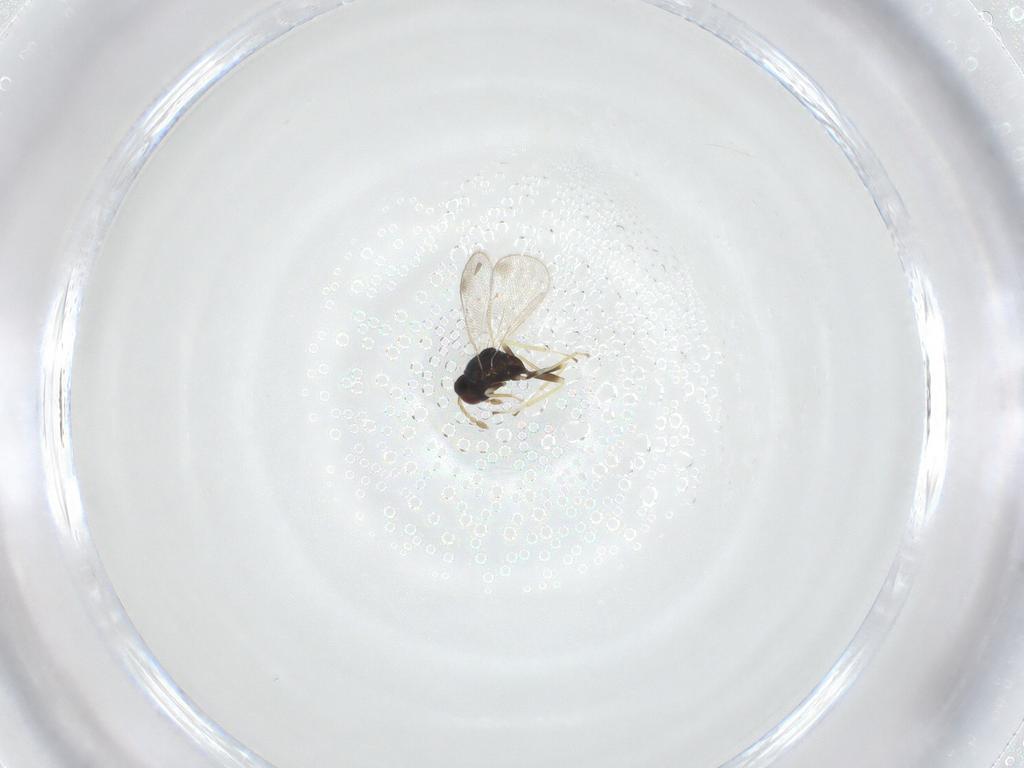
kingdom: Animalia
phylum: Arthropoda
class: Insecta
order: Hymenoptera
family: Eulophidae
